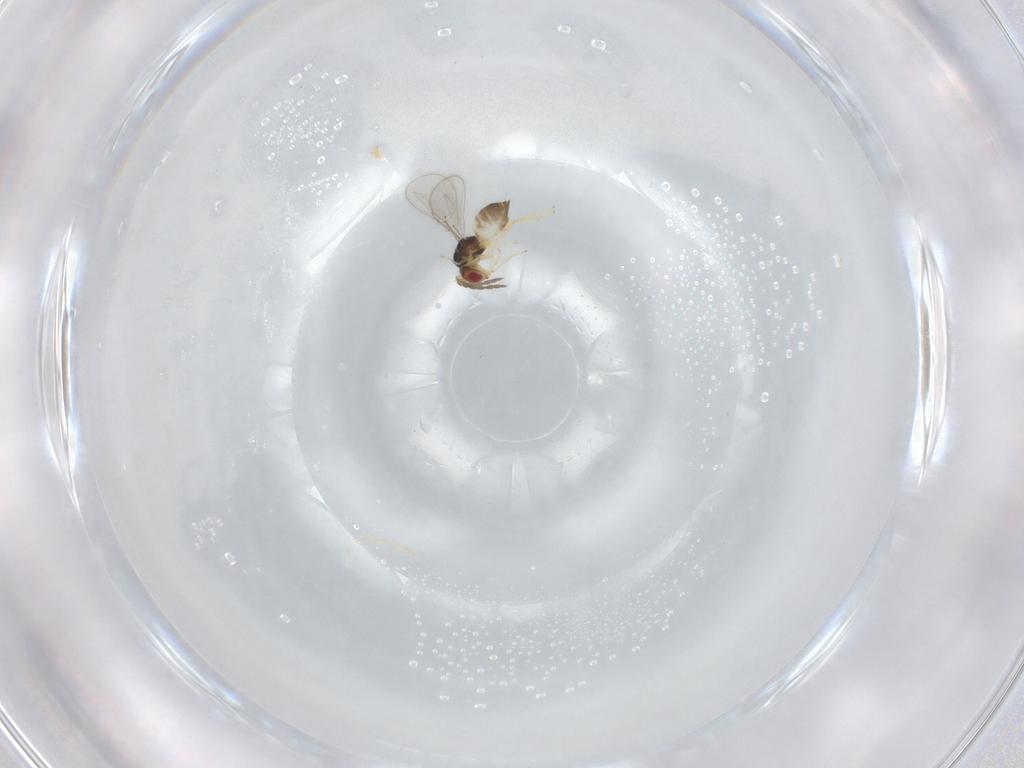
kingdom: Animalia
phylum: Arthropoda
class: Insecta
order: Hymenoptera
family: Eulophidae
